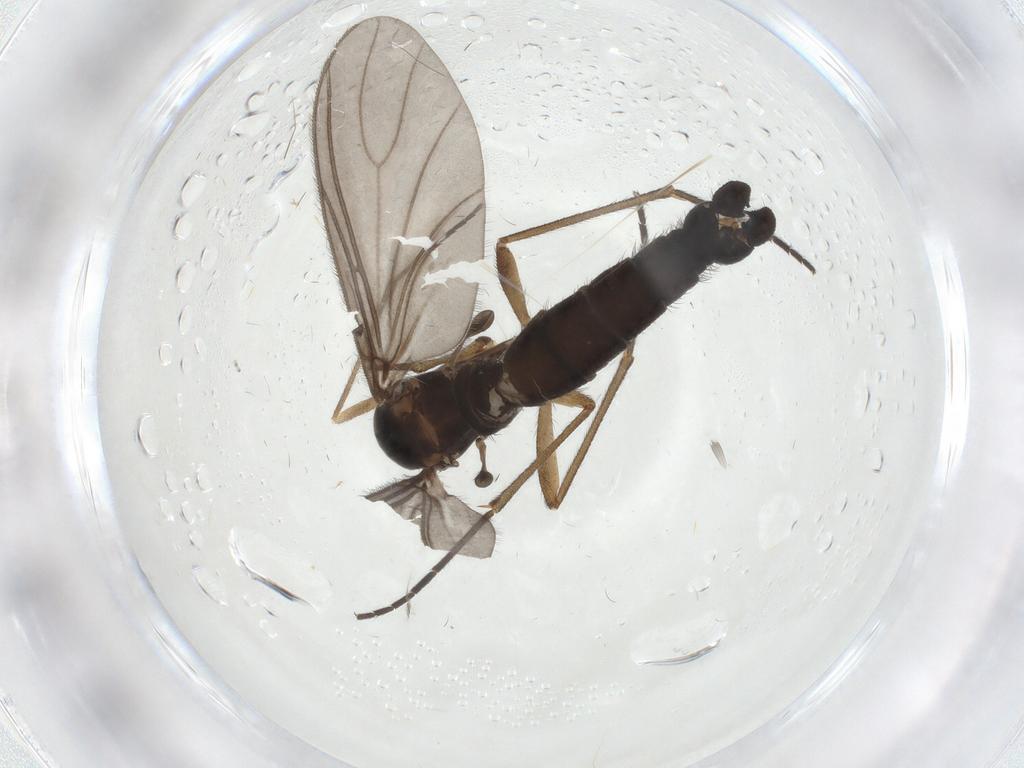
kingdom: Animalia
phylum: Arthropoda
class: Insecta
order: Diptera
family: Sciaridae
